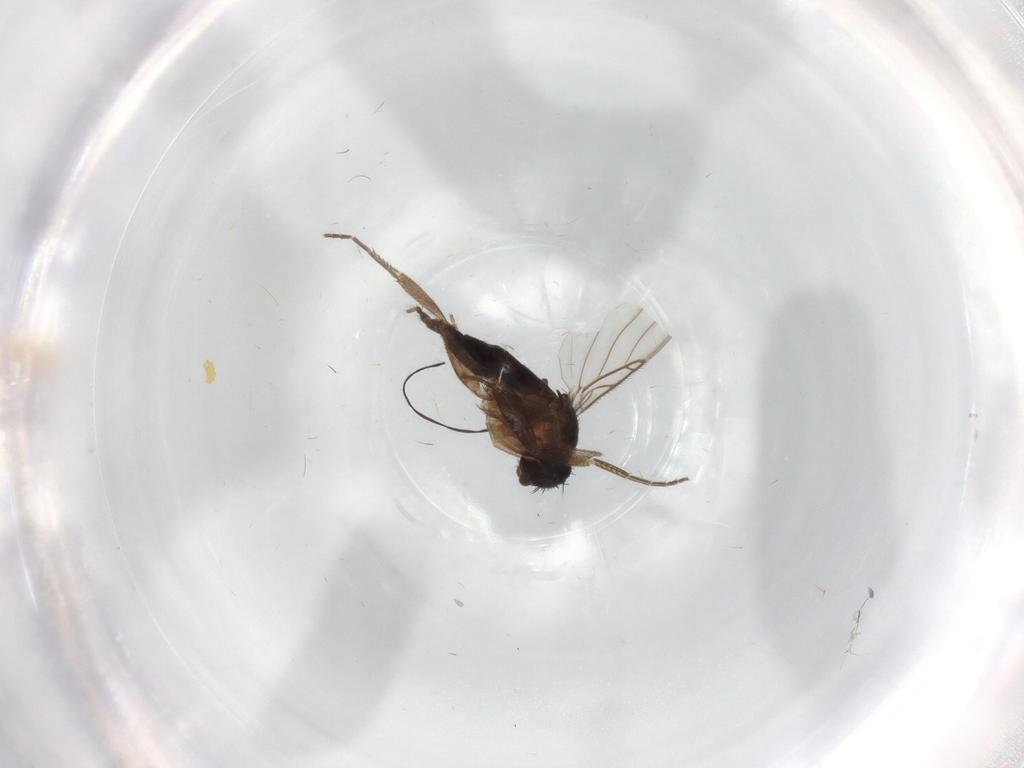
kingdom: Animalia
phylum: Arthropoda
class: Insecta
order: Diptera
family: Phoridae
